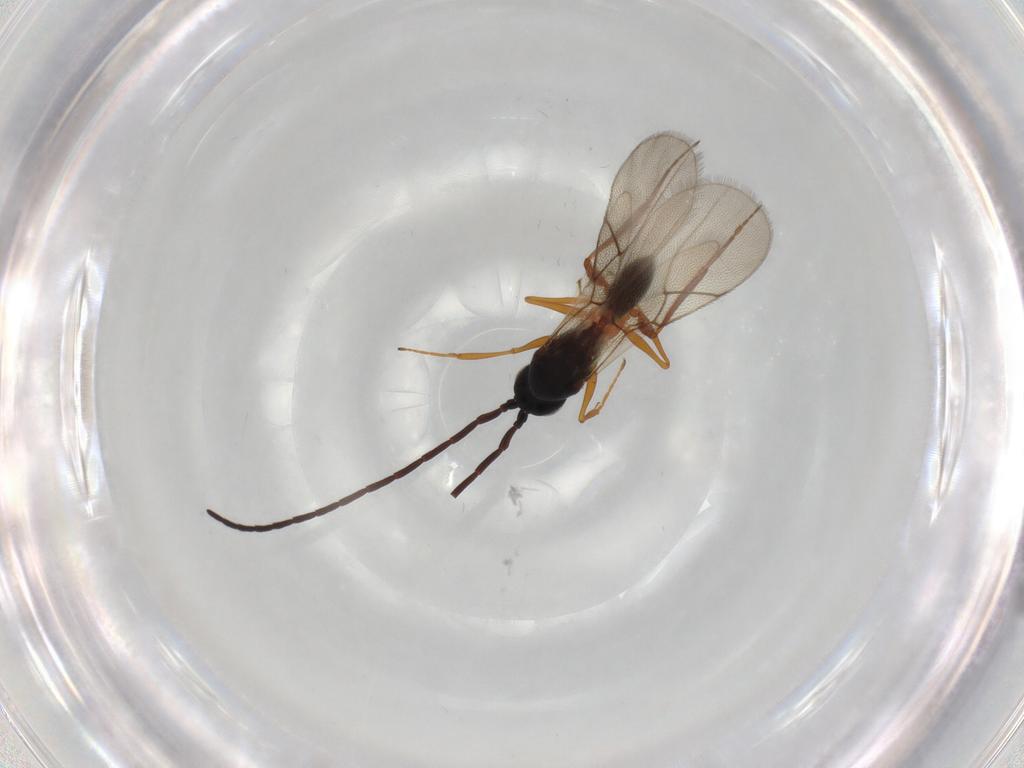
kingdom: Animalia
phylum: Arthropoda
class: Insecta
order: Hymenoptera
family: Figitidae
